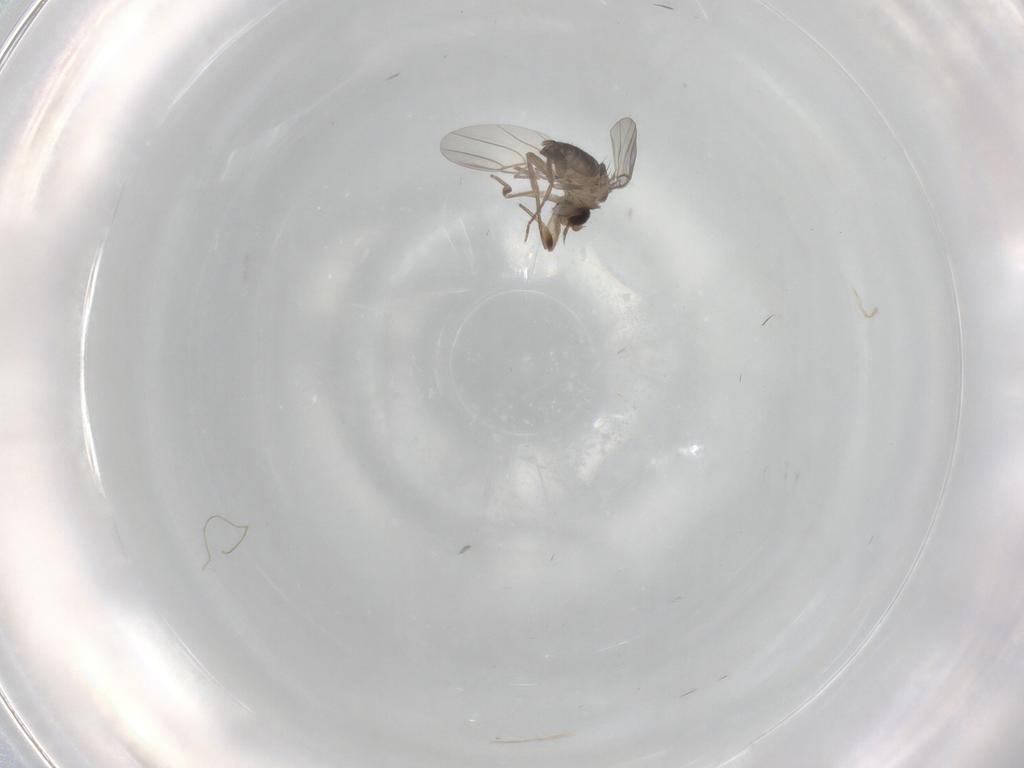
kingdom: Animalia
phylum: Arthropoda
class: Insecta
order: Diptera
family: Phoridae
